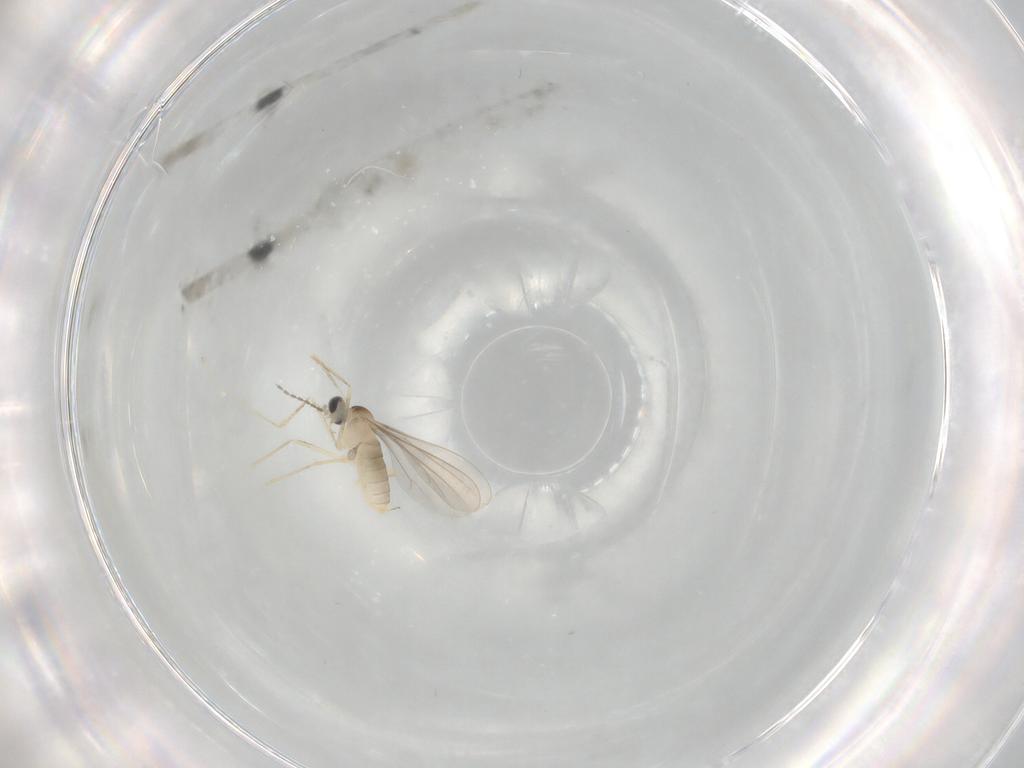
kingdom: Animalia
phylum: Arthropoda
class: Insecta
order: Diptera
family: Cecidomyiidae
